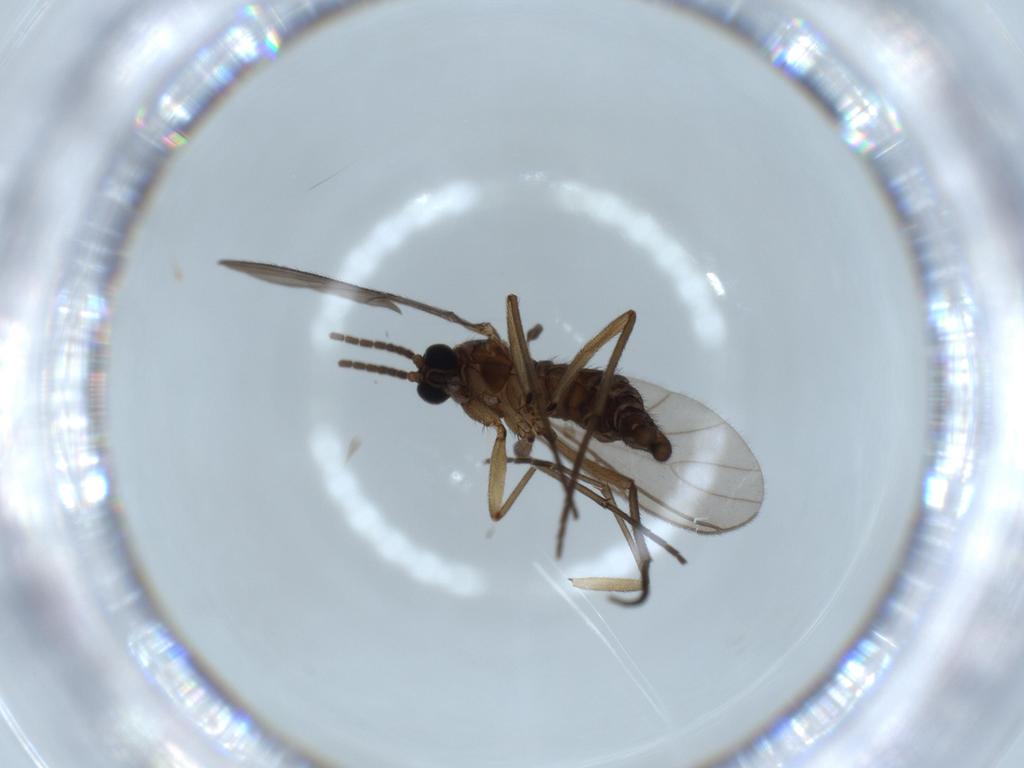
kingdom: Animalia
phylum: Arthropoda
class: Insecta
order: Diptera
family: Sciaridae
